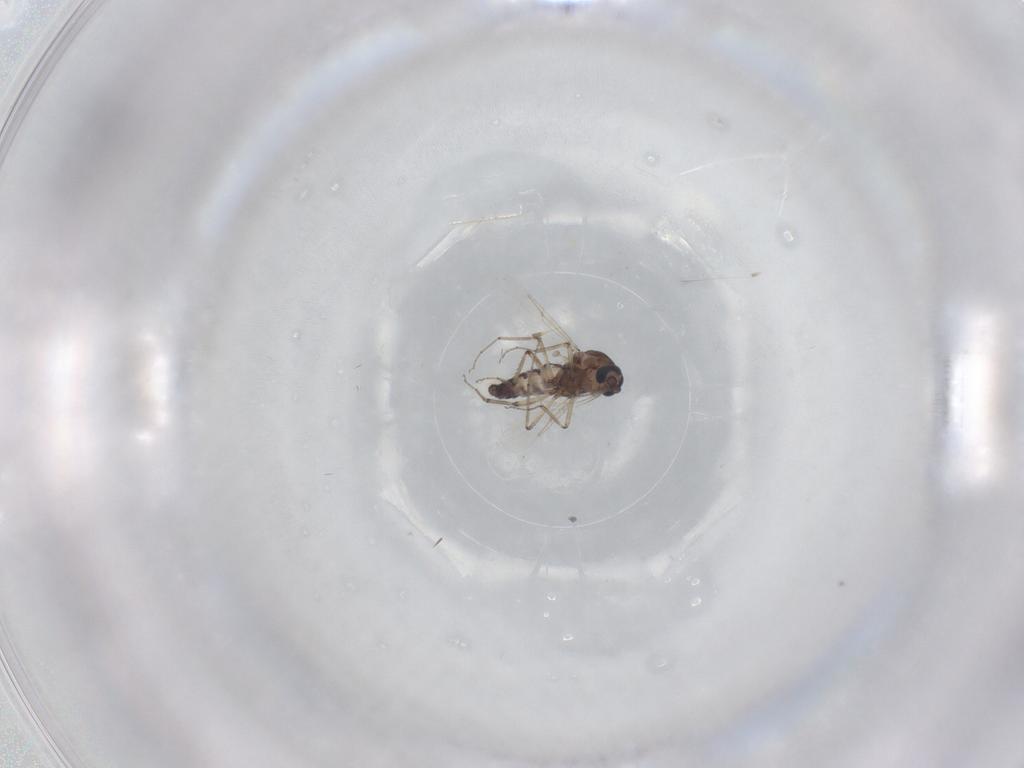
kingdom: Animalia
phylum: Arthropoda
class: Insecta
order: Diptera
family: Ceratopogonidae
